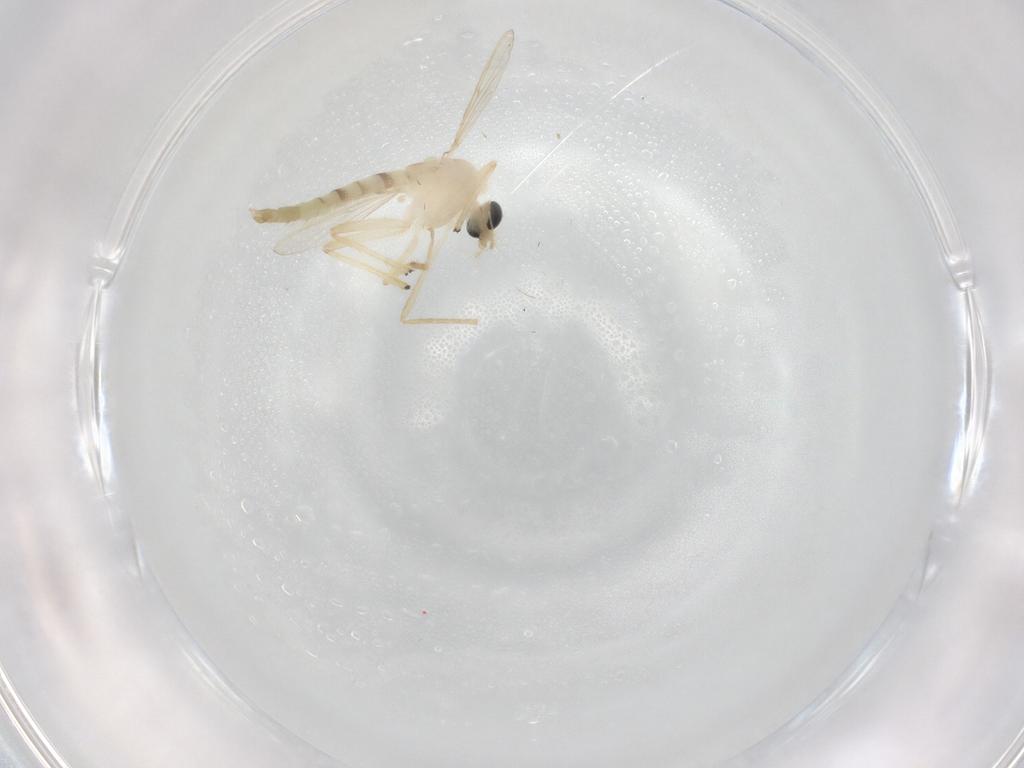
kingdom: Animalia
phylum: Arthropoda
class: Insecta
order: Diptera
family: Chironomidae
